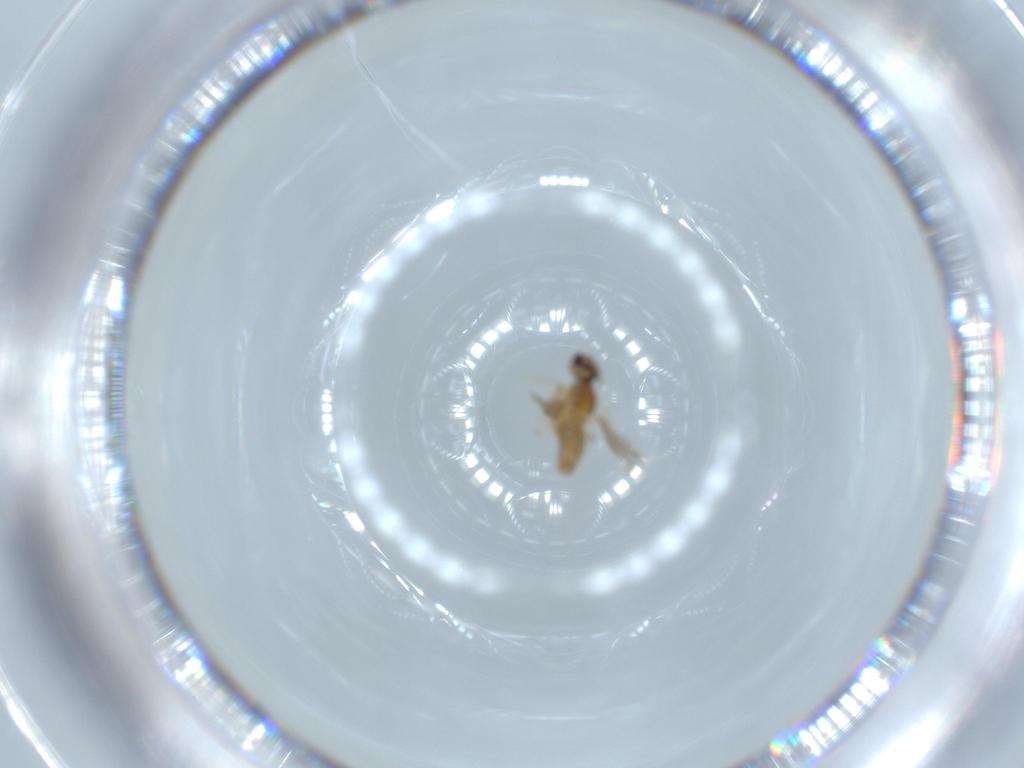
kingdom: Animalia
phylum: Arthropoda
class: Insecta
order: Diptera
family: Cecidomyiidae
